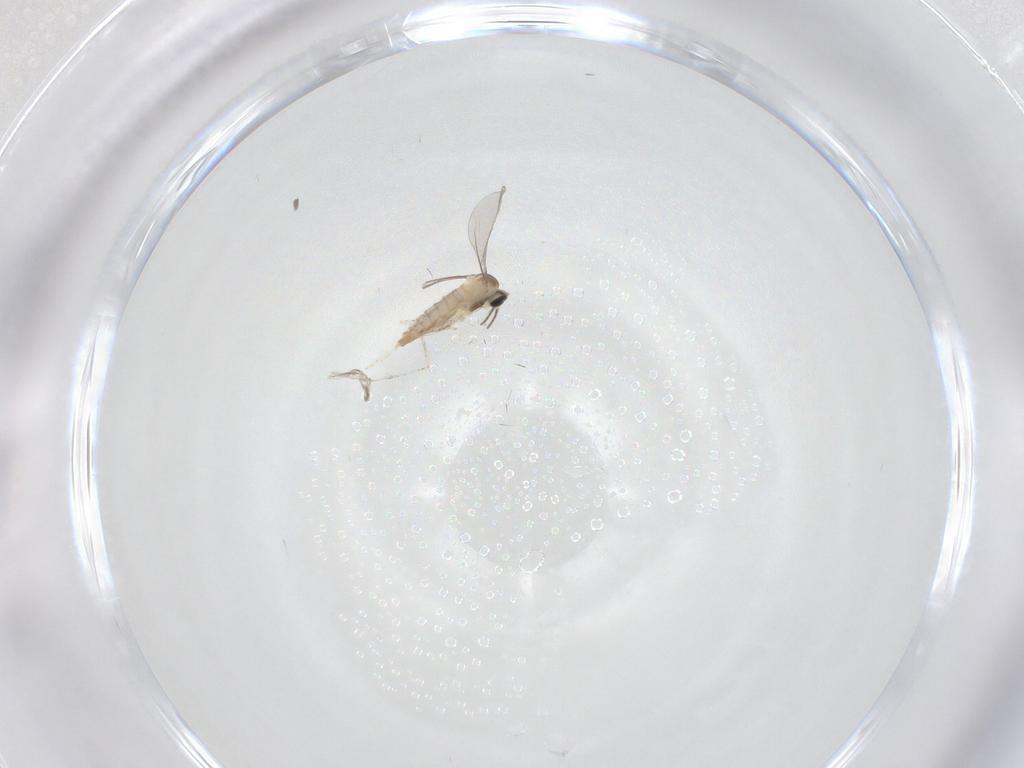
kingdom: Animalia
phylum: Arthropoda
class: Insecta
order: Diptera
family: Cecidomyiidae
